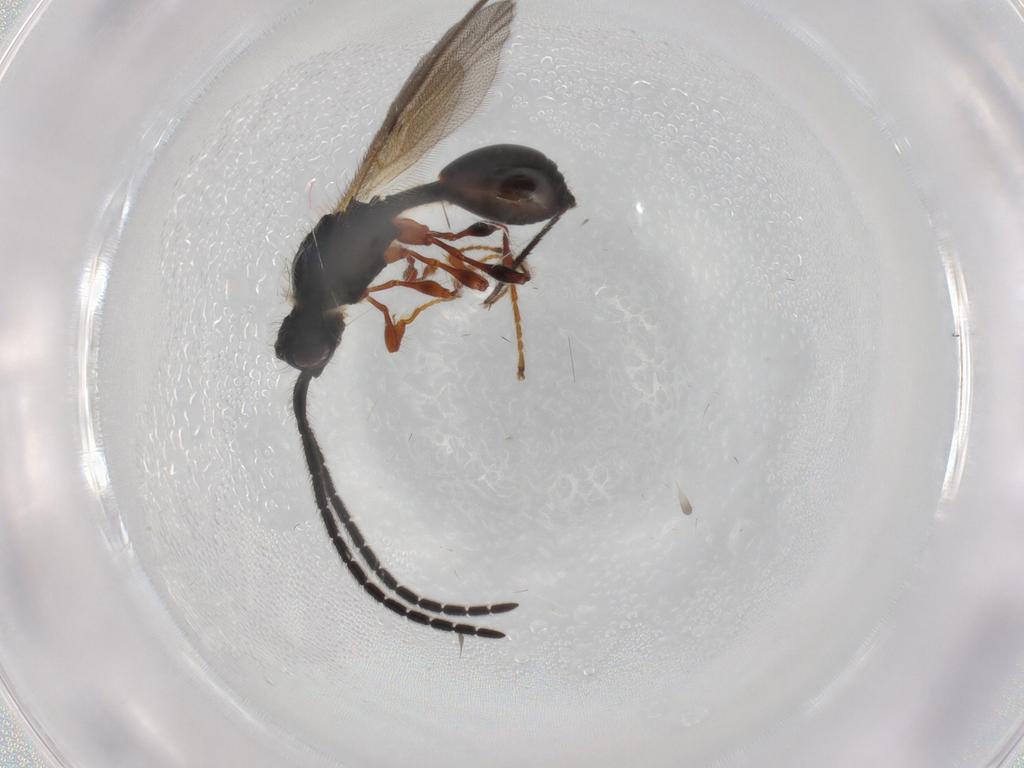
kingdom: Animalia
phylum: Arthropoda
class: Insecta
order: Hymenoptera
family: Diapriidae
